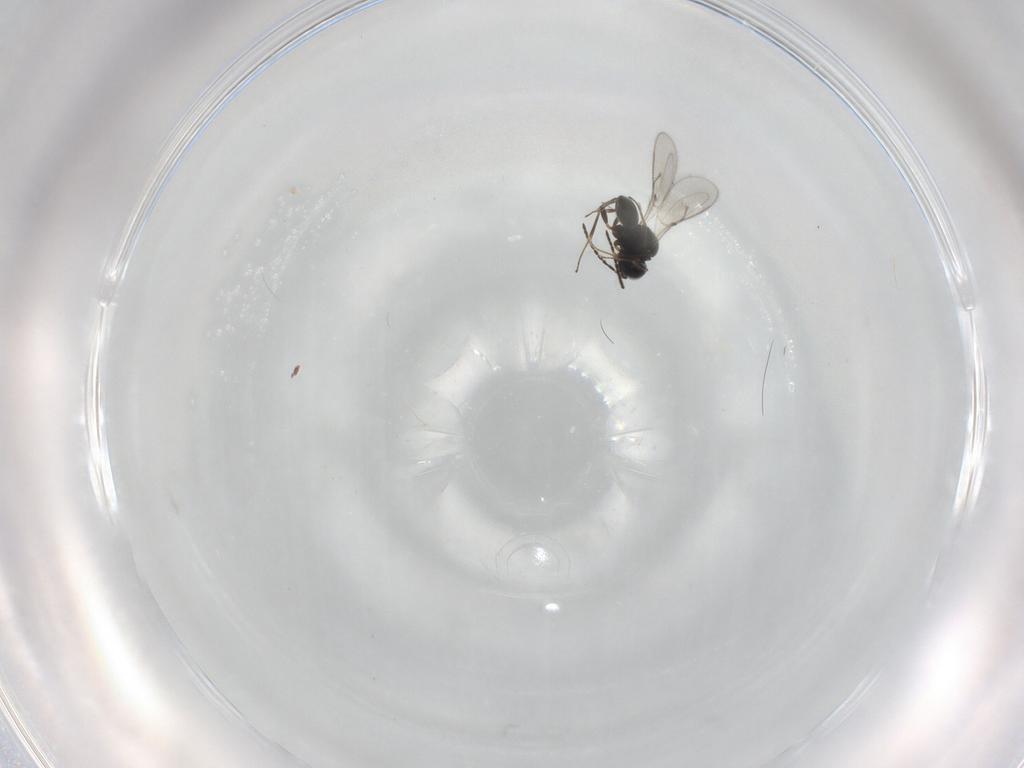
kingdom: Animalia
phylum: Arthropoda
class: Insecta
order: Hymenoptera
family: Scelionidae
